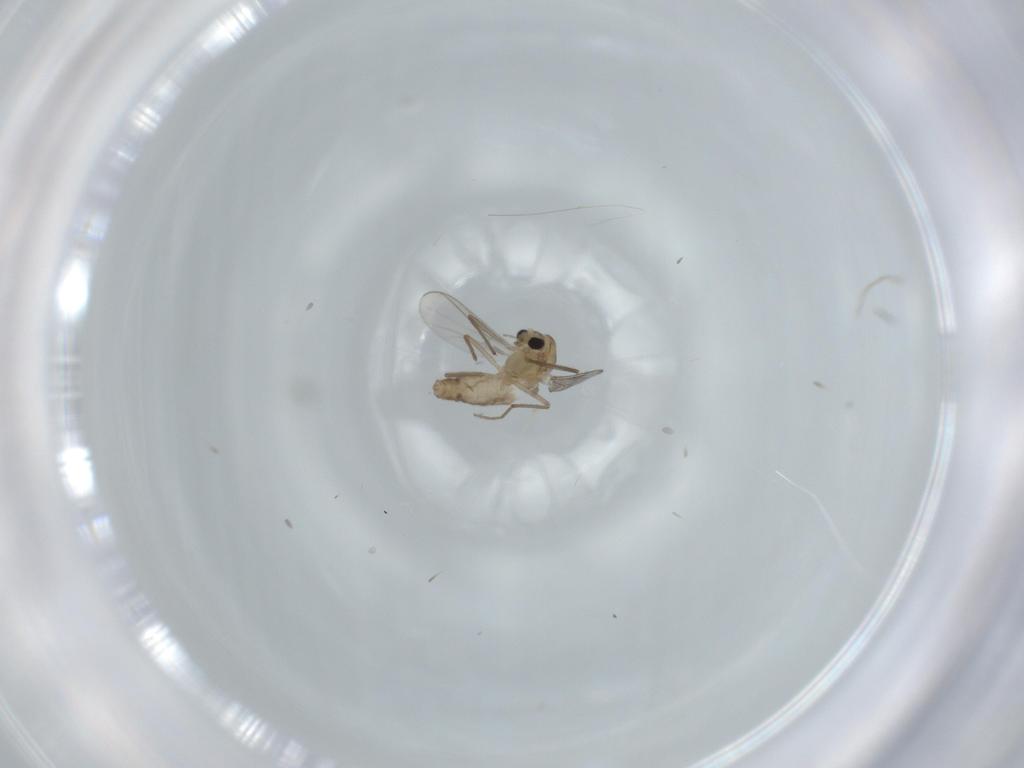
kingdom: Animalia
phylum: Arthropoda
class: Insecta
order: Diptera
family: Chironomidae
